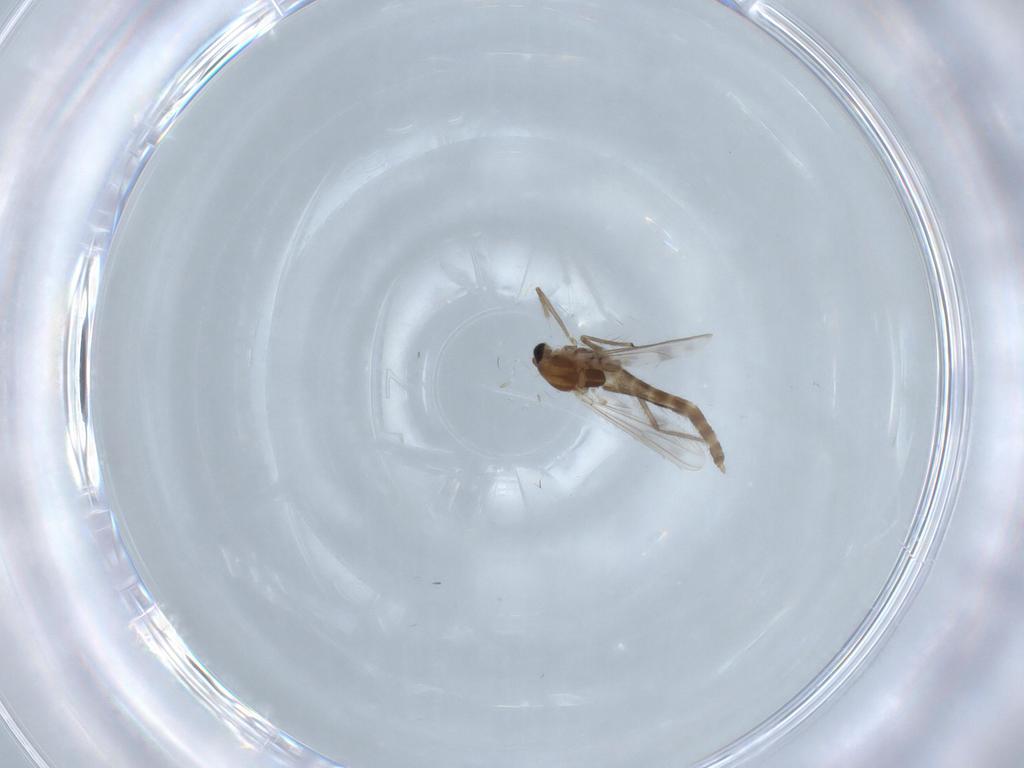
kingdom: Animalia
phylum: Arthropoda
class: Insecta
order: Diptera
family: Chironomidae
